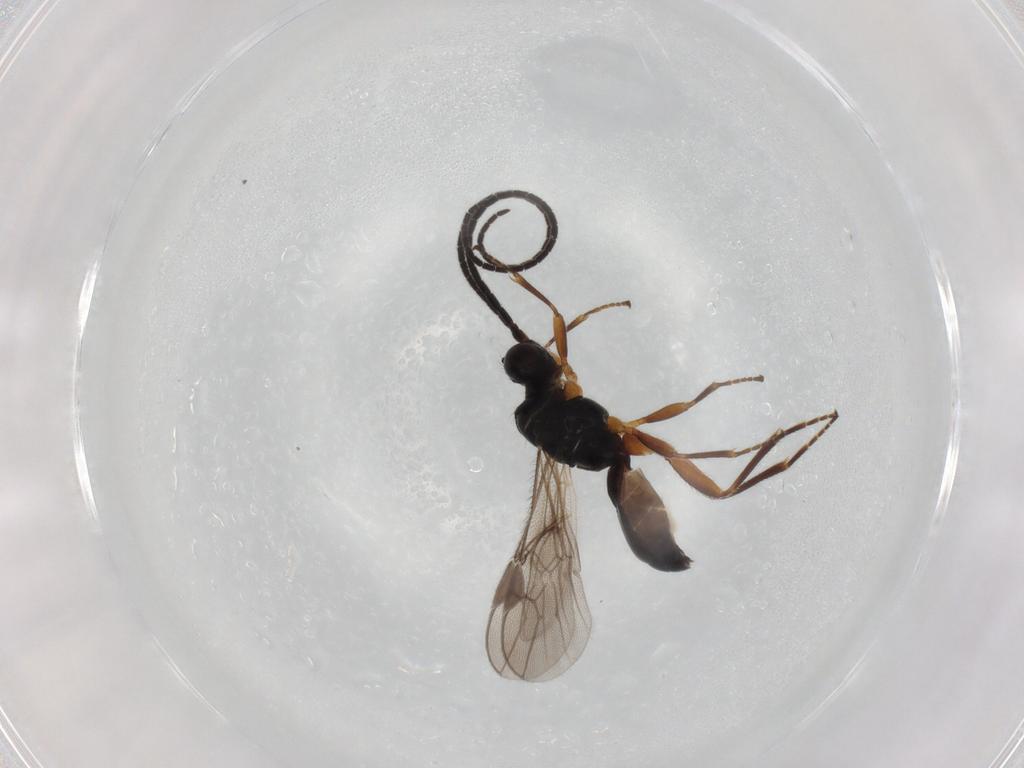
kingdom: Animalia
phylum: Arthropoda
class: Insecta
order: Hymenoptera
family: Braconidae
